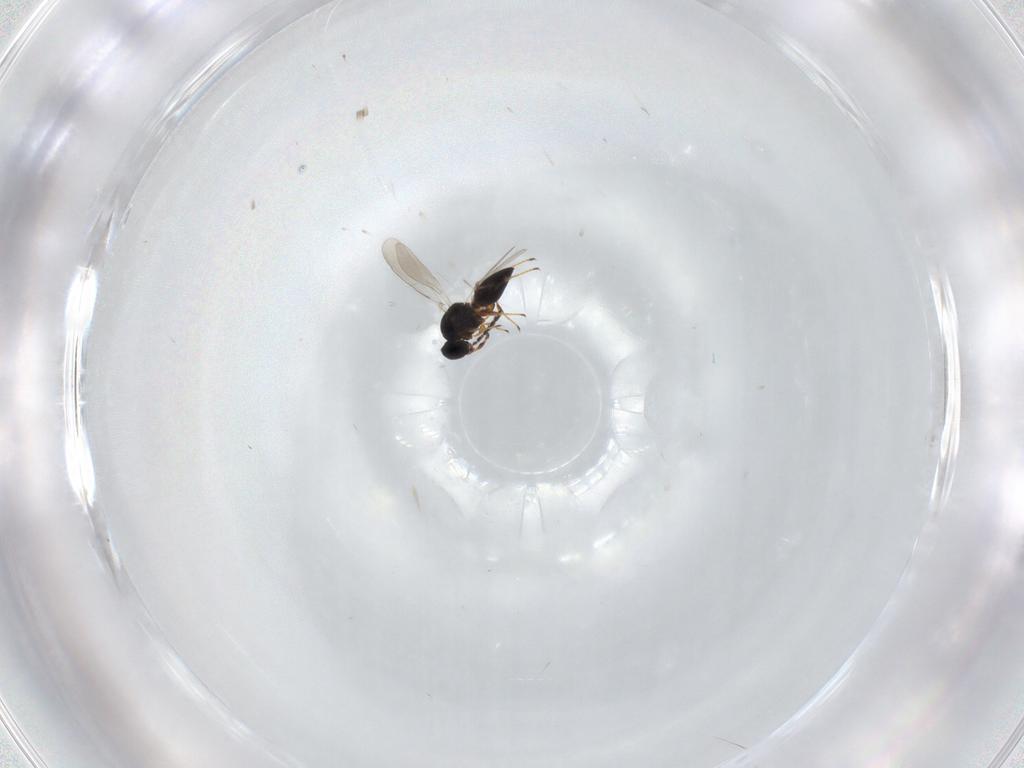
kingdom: Animalia
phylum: Arthropoda
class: Insecta
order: Hymenoptera
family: Platygastridae
